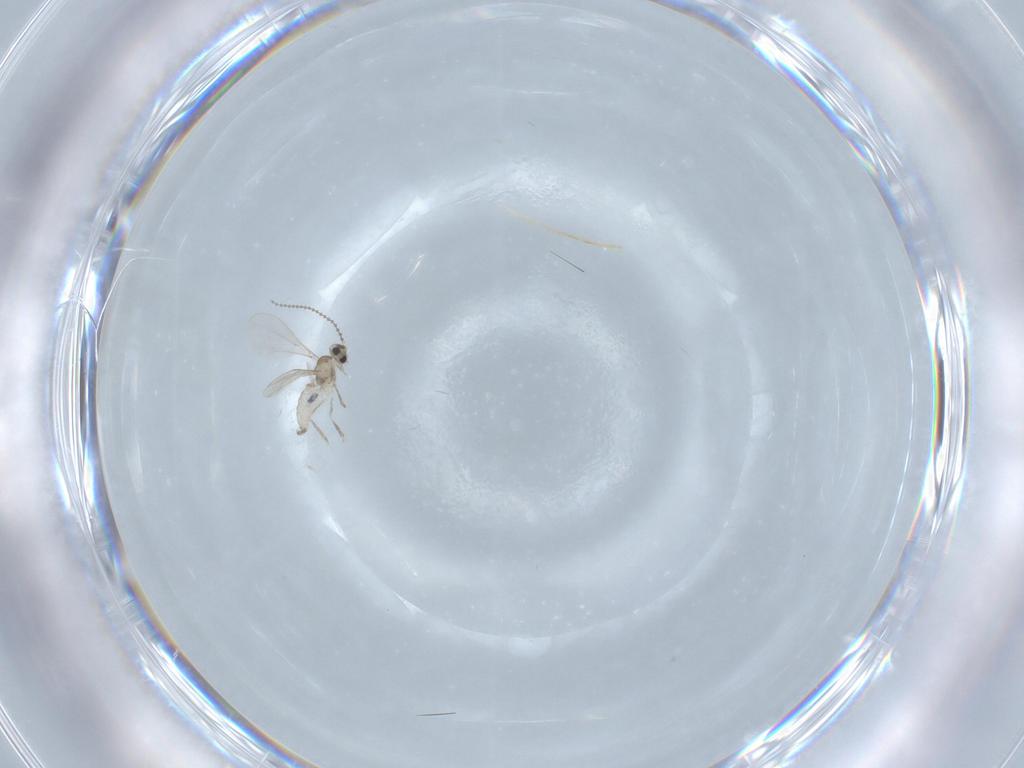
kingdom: Animalia
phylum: Arthropoda
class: Insecta
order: Diptera
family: Cecidomyiidae
